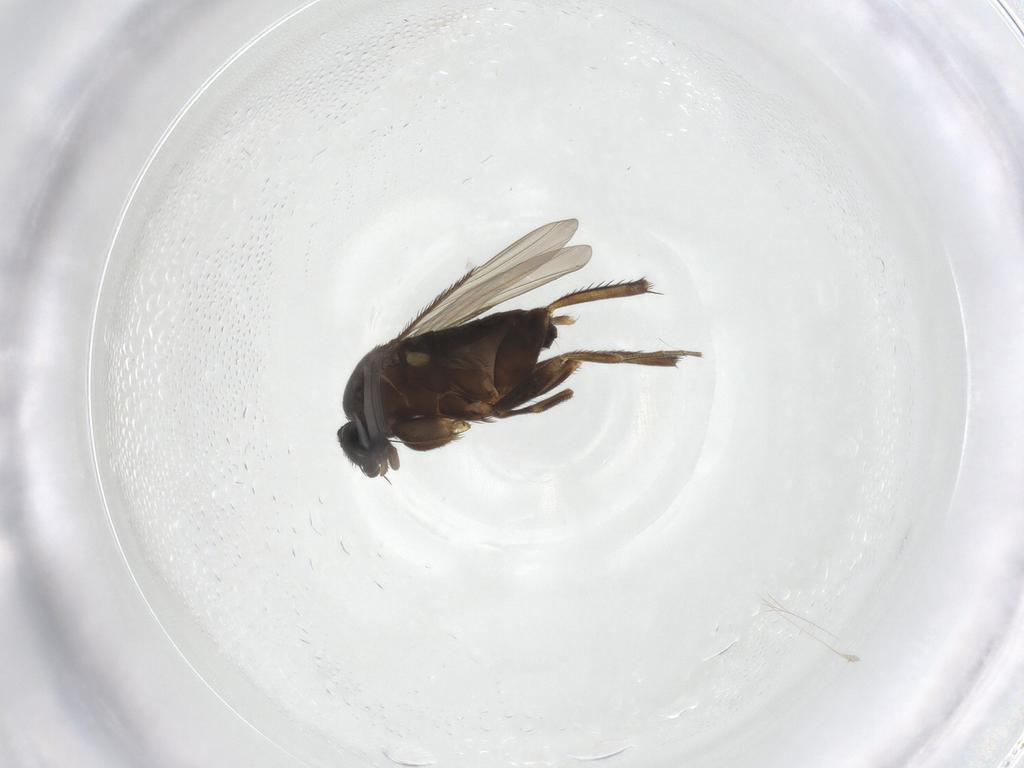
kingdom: Animalia
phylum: Arthropoda
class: Insecta
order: Diptera
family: Phoridae
